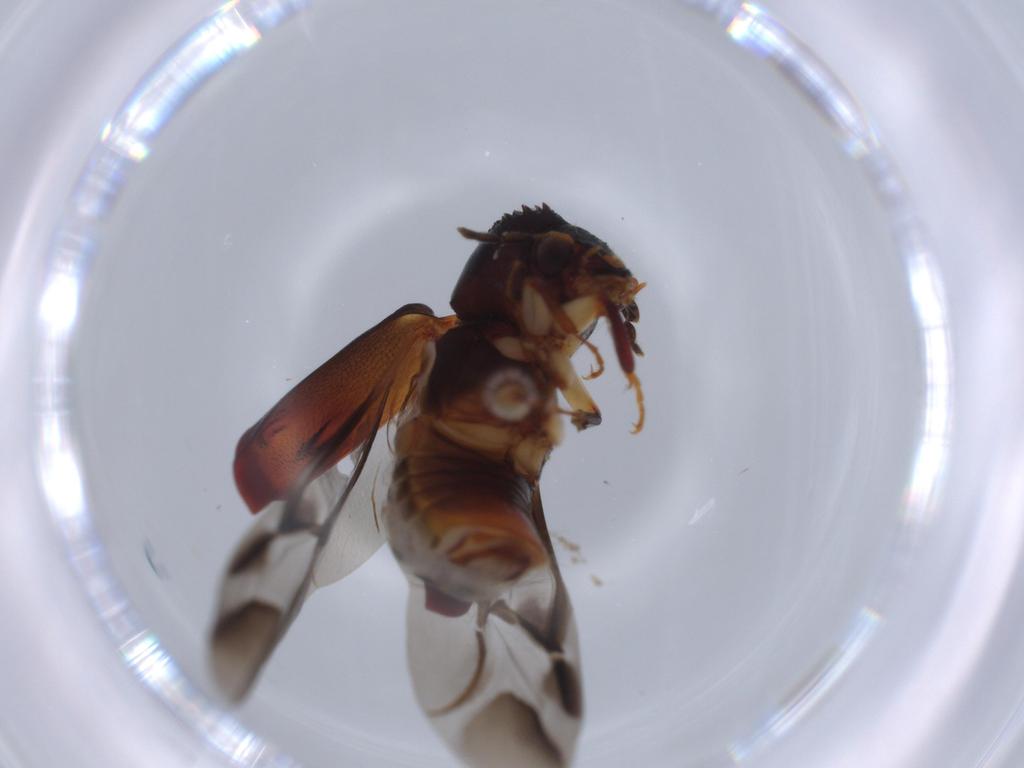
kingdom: Animalia
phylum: Arthropoda
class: Insecta
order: Coleoptera
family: Bostrichidae
